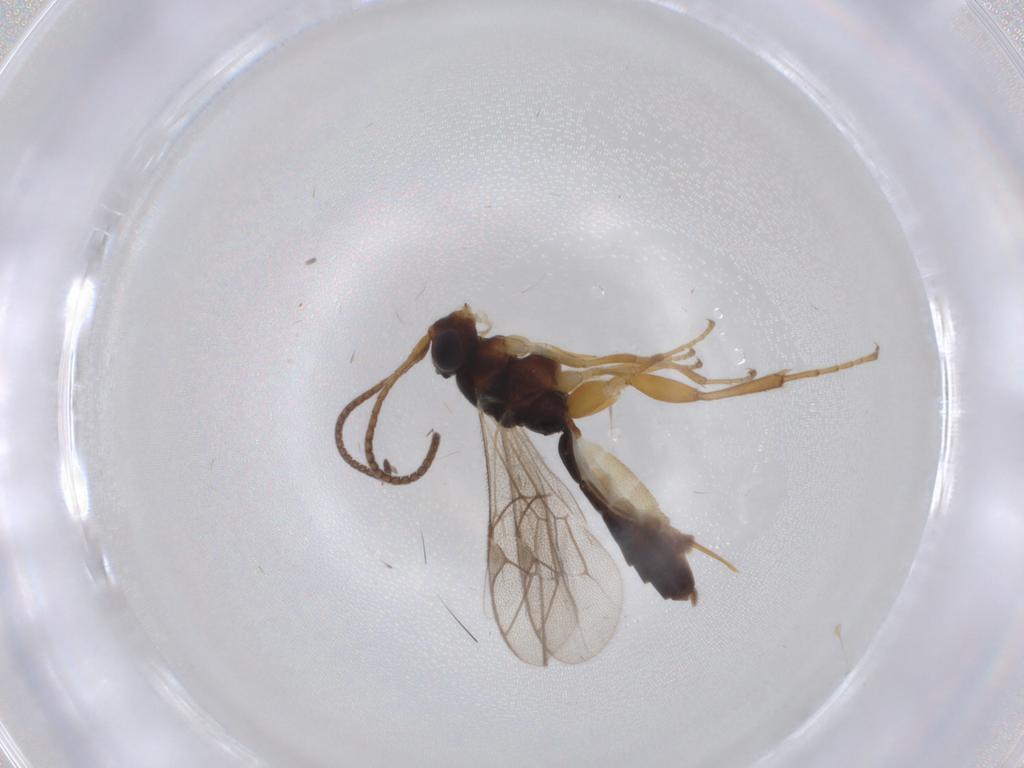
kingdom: Animalia
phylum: Arthropoda
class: Insecta
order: Hymenoptera
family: Ichneumonidae
